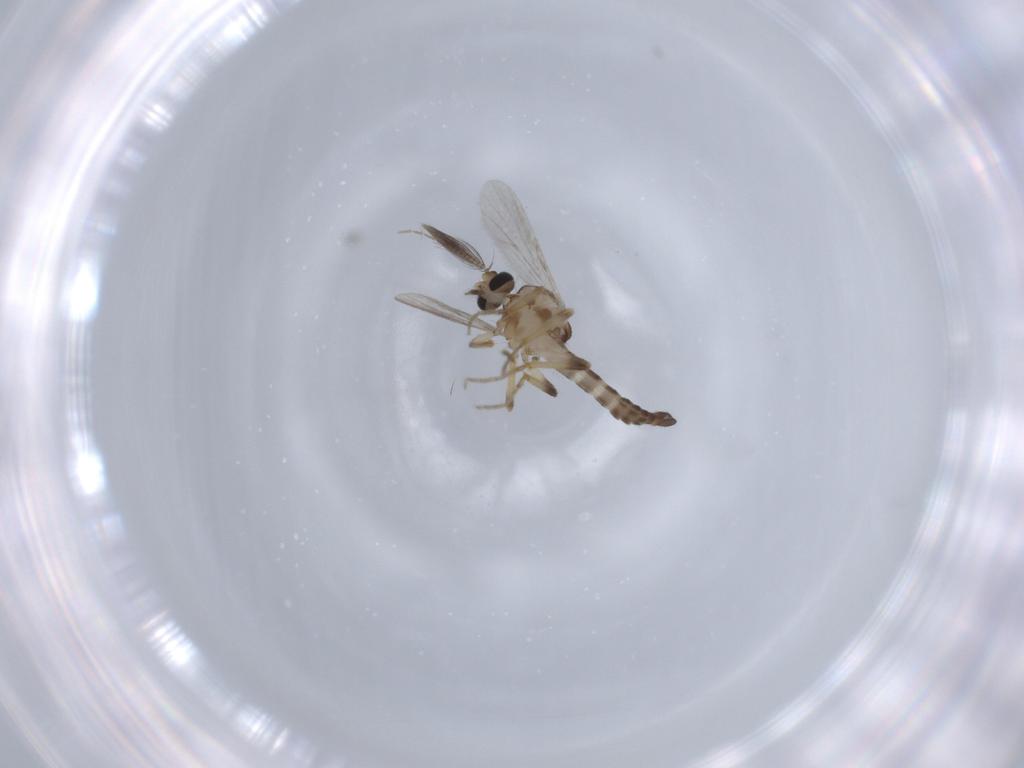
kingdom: Animalia
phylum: Arthropoda
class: Insecta
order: Diptera
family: Ceratopogonidae
